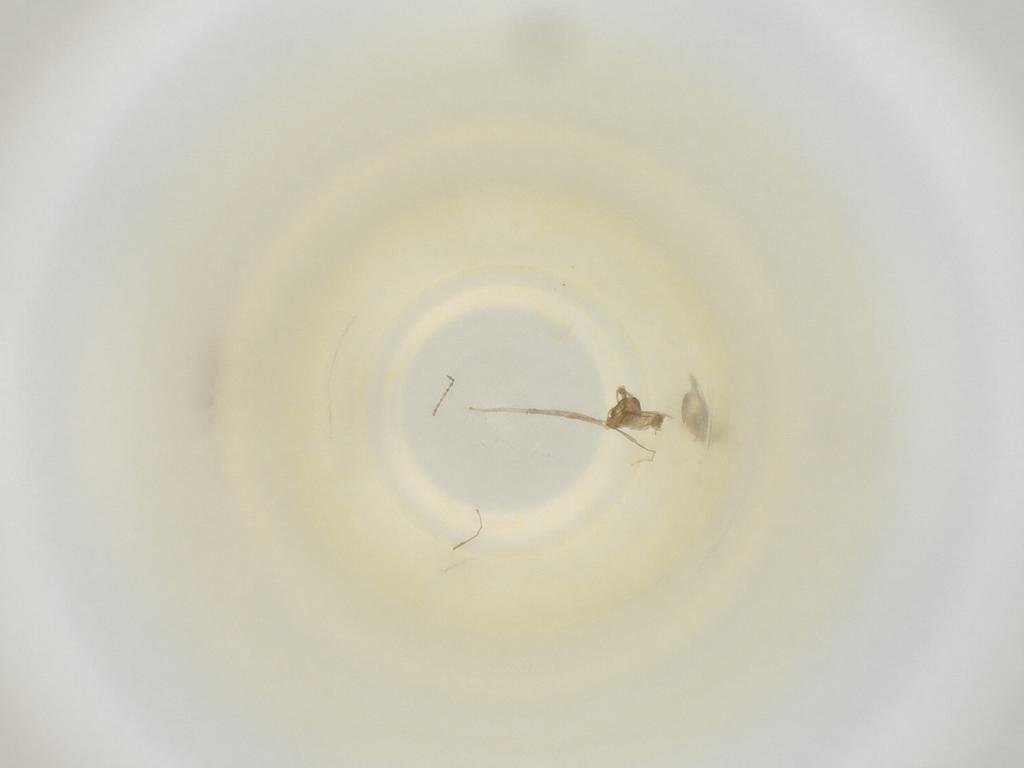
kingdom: Animalia
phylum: Arthropoda
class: Insecta
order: Diptera
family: Cecidomyiidae
